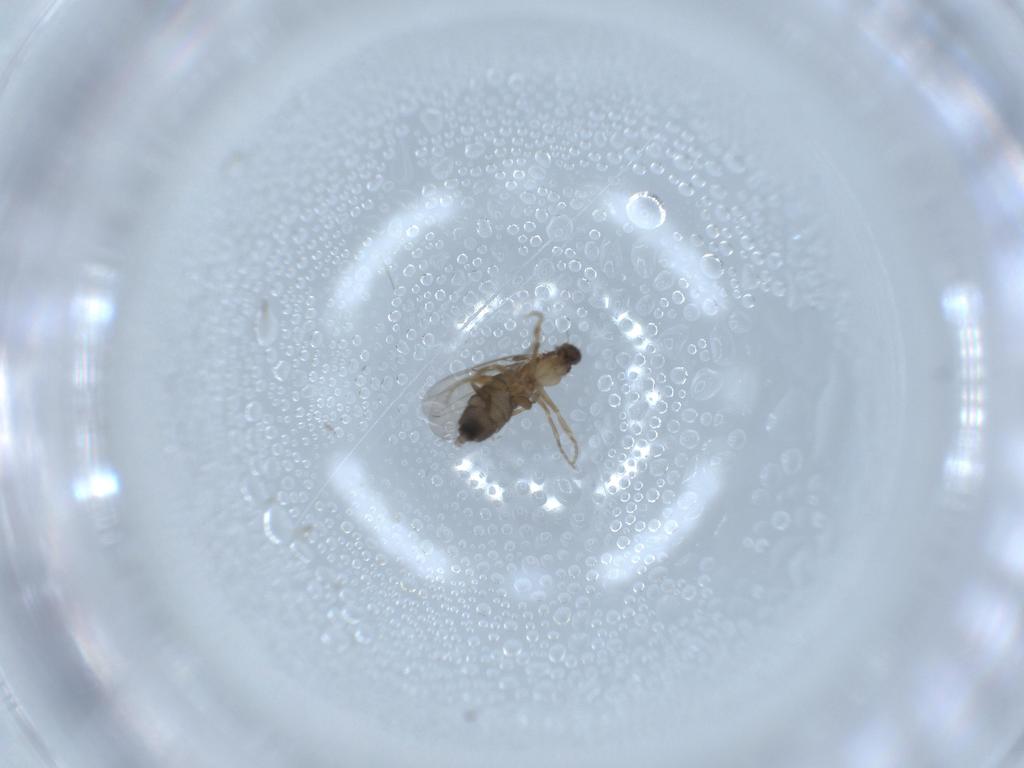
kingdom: Animalia
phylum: Arthropoda
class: Insecta
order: Diptera
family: Phoridae
